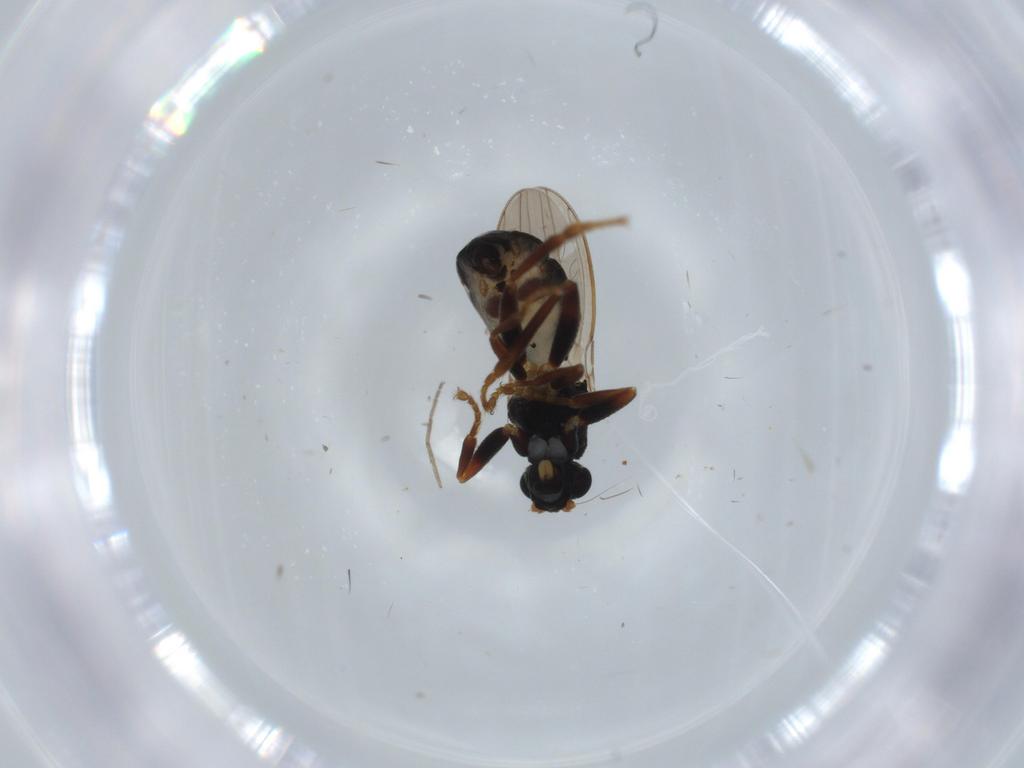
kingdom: Animalia
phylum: Arthropoda
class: Insecta
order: Diptera
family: Sphaeroceridae
